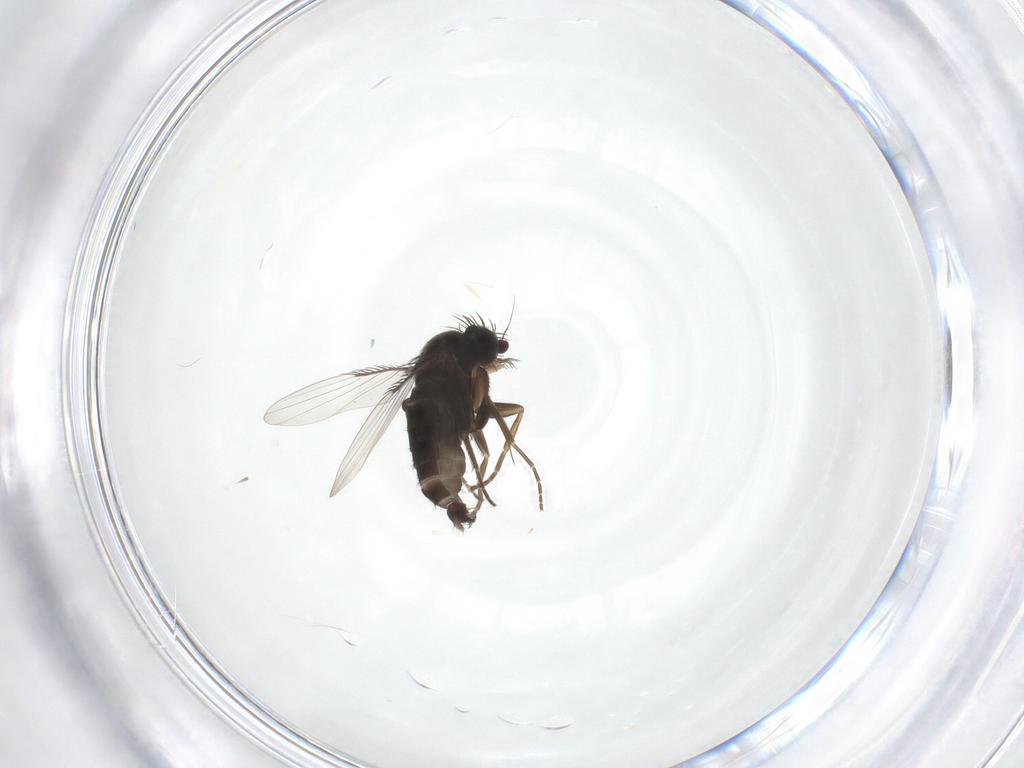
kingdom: Animalia
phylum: Arthropoda
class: Insecta
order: Diptera
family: Phoridae
